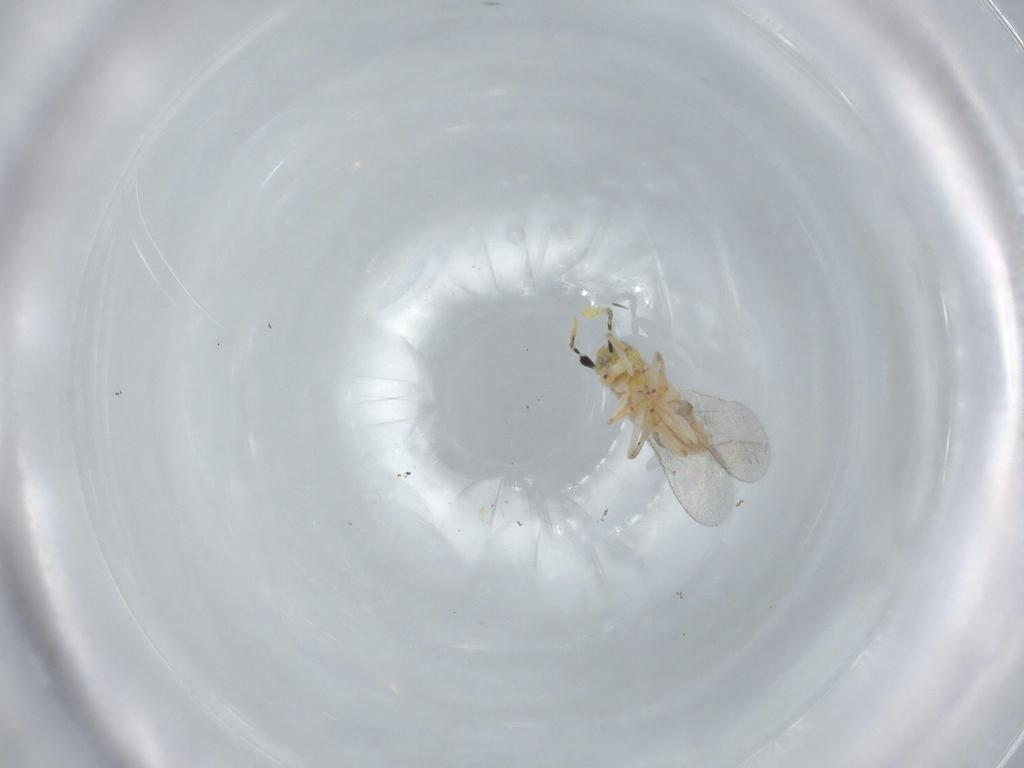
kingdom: Animalia
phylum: Arthropoda
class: Insecta
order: Hymenoptera
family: Encyrtidae
